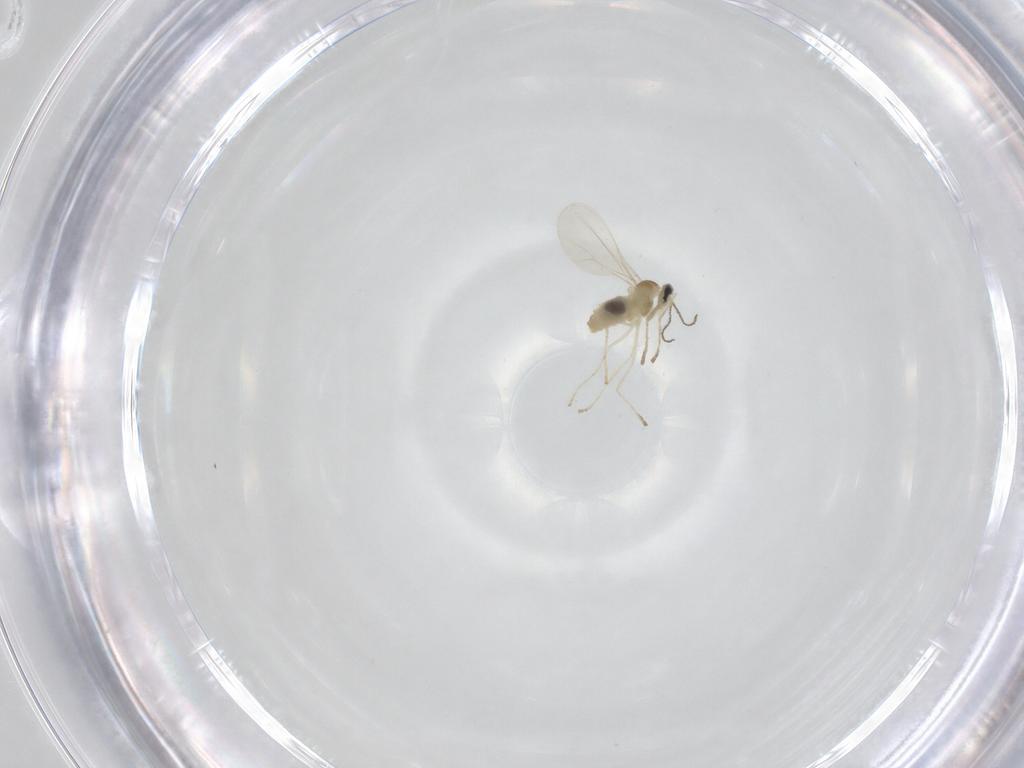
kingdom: Animalia
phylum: Arthropoda
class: Insecta
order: Diptera
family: Cecidomyiidae
